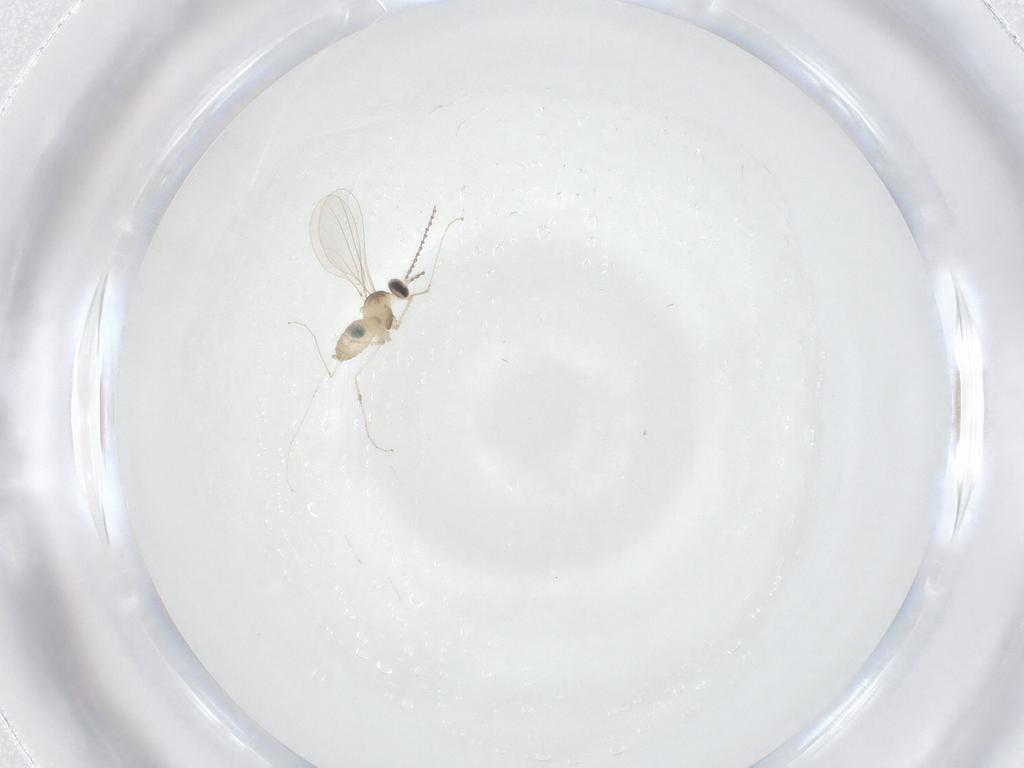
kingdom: Animalia
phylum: Arthropoda
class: Insecta
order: Diptera
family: Cecidomyiidae
